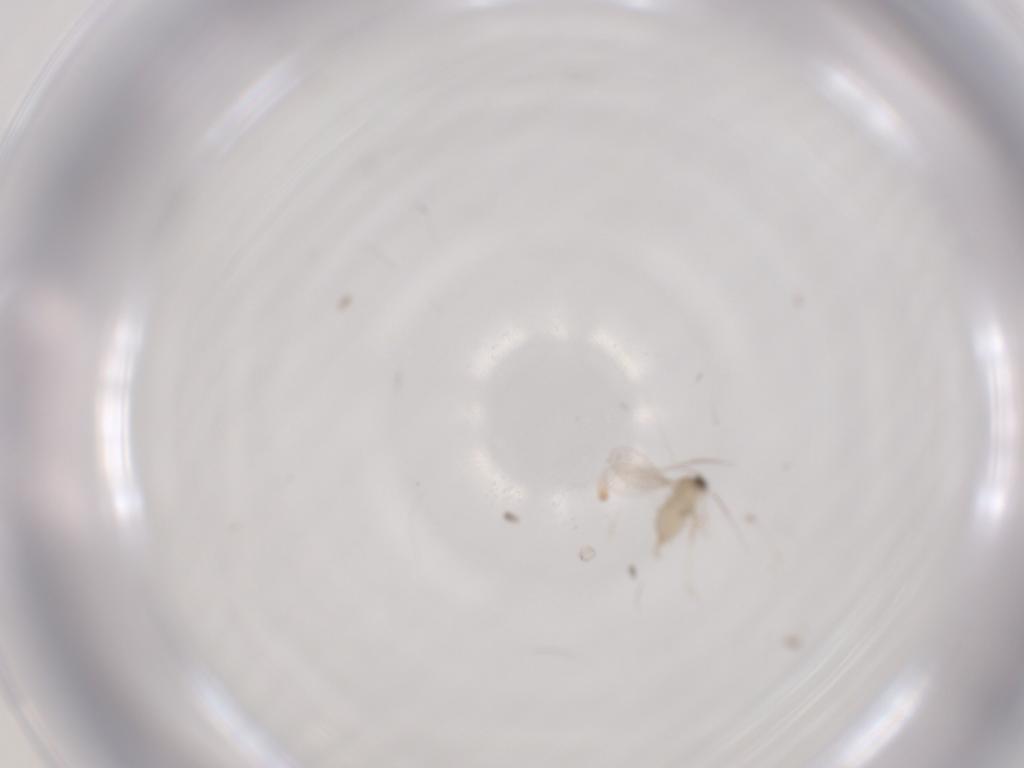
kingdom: Animalia
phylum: Arthropoda
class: Insecta
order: Diptera
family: Cecidomyiidae
